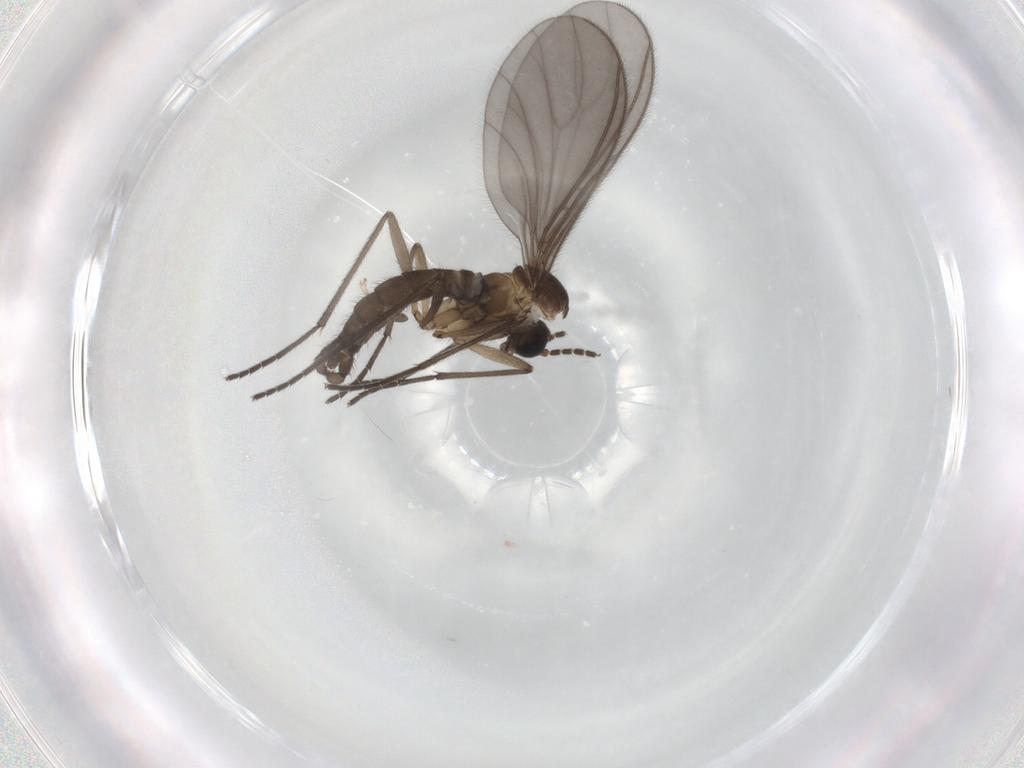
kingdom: Animalia
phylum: Arthropoda
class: Insecta
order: Diptera
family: Sciaridae
